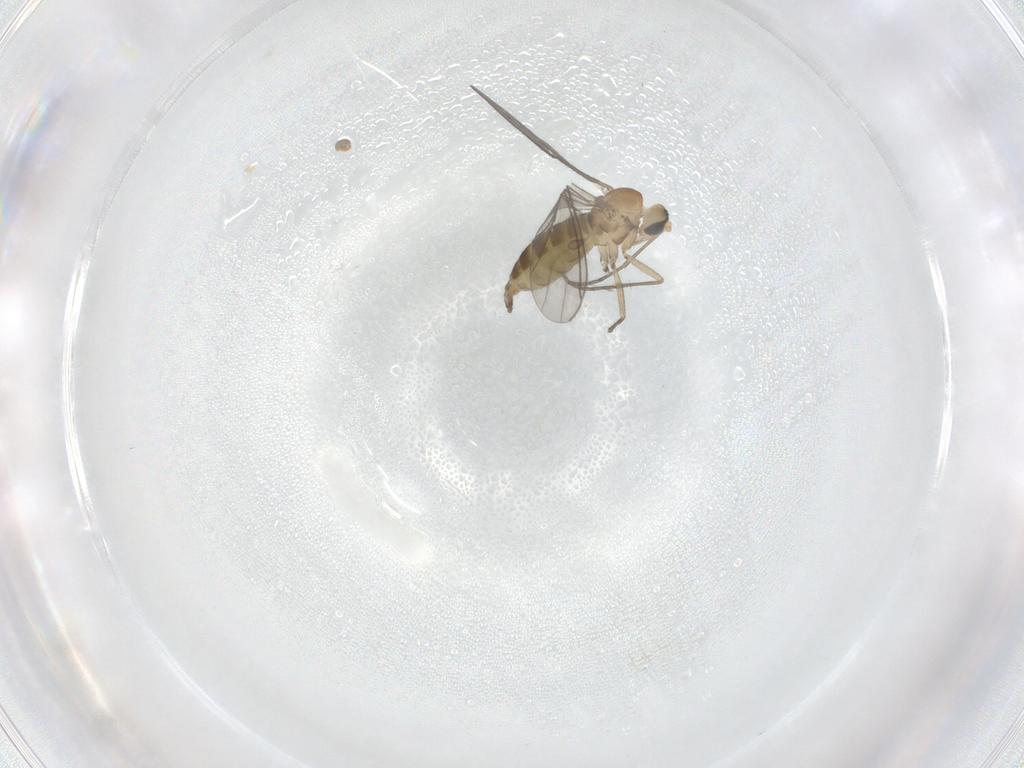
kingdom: Animalia
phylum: Arthropoda
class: Insecta
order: Diptera
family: Sciaridae
